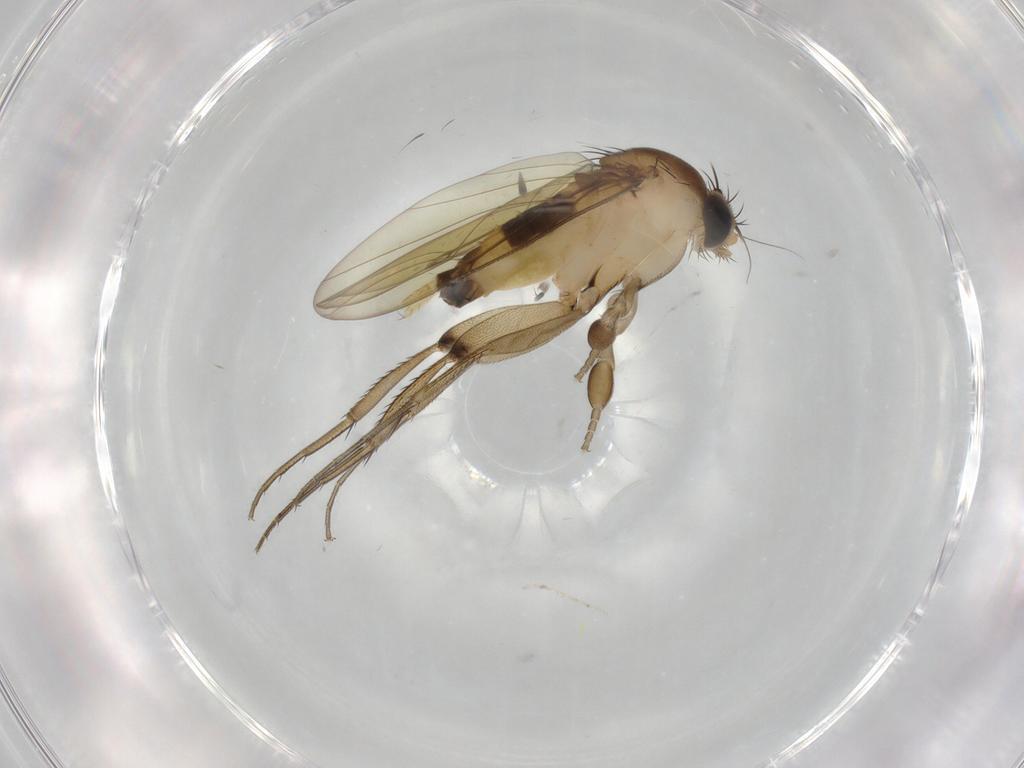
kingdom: Animalia
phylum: Arthropoda
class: Insecta
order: Diptera
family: Phoridae
